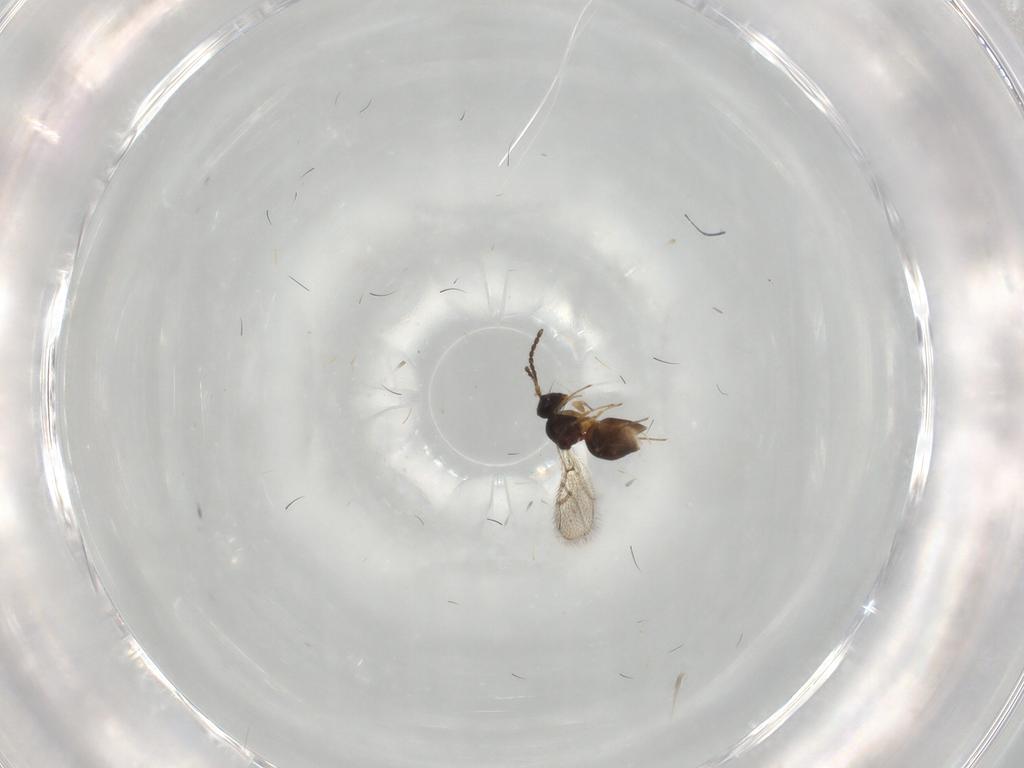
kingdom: Animalia
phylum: Arthropoda
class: Insecta
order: Hymenoptera
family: Figitidae
